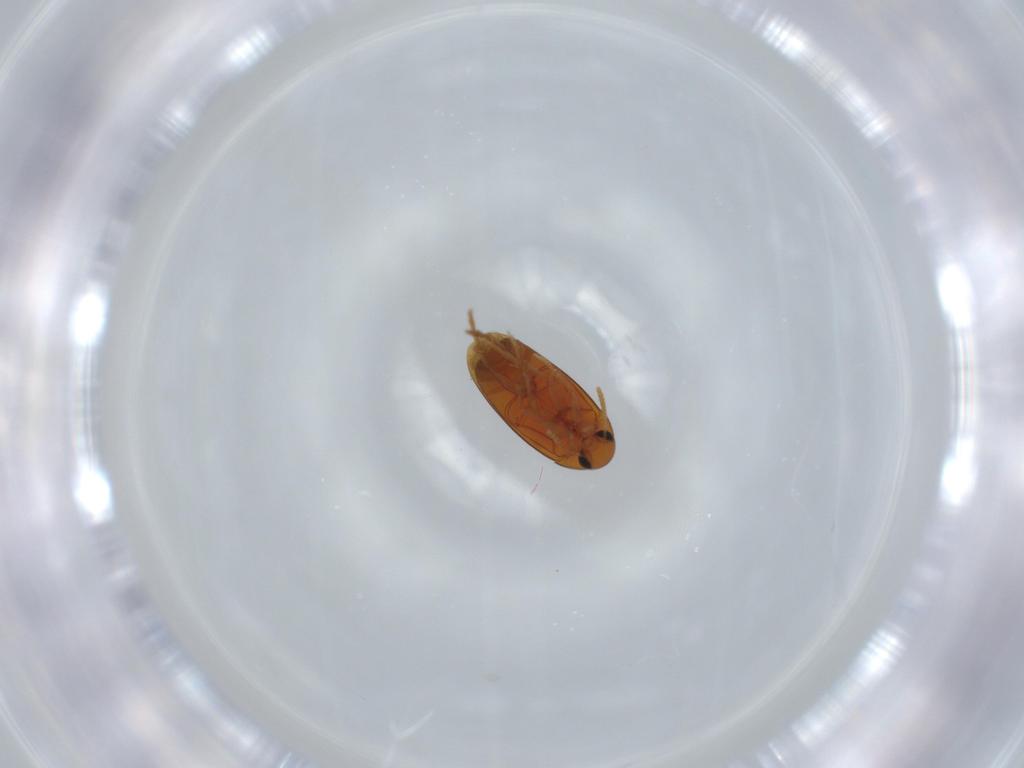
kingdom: Animalia
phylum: Arthropoda
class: Insecta
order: Coleoptera
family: Scraptiidae
